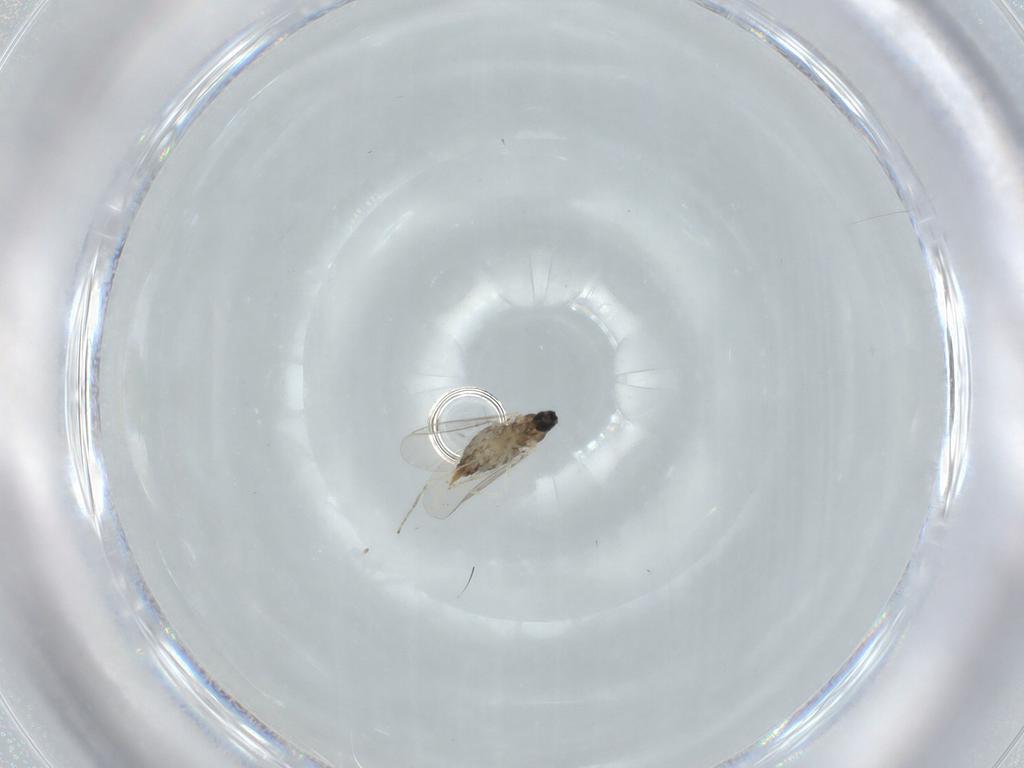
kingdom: Animalia
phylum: Arthropoda
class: Insecta
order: Diptera
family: Cecidomyiidae
